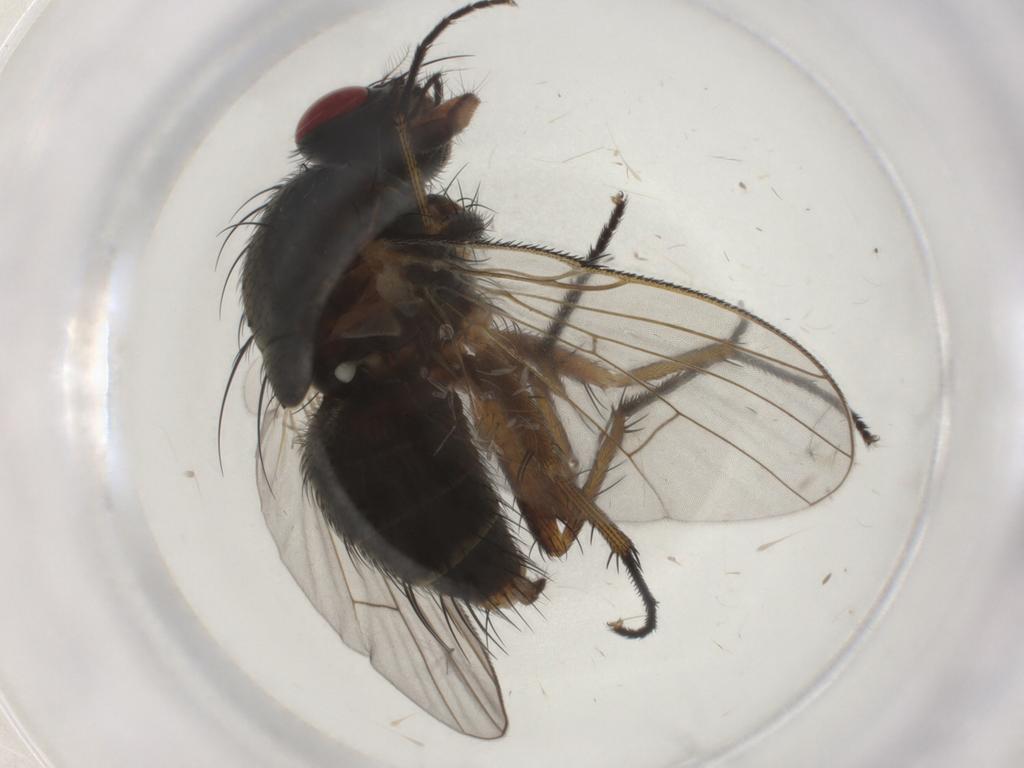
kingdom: Animalia
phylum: Arthropoda
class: Insecta
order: Diptera
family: Muscidae
